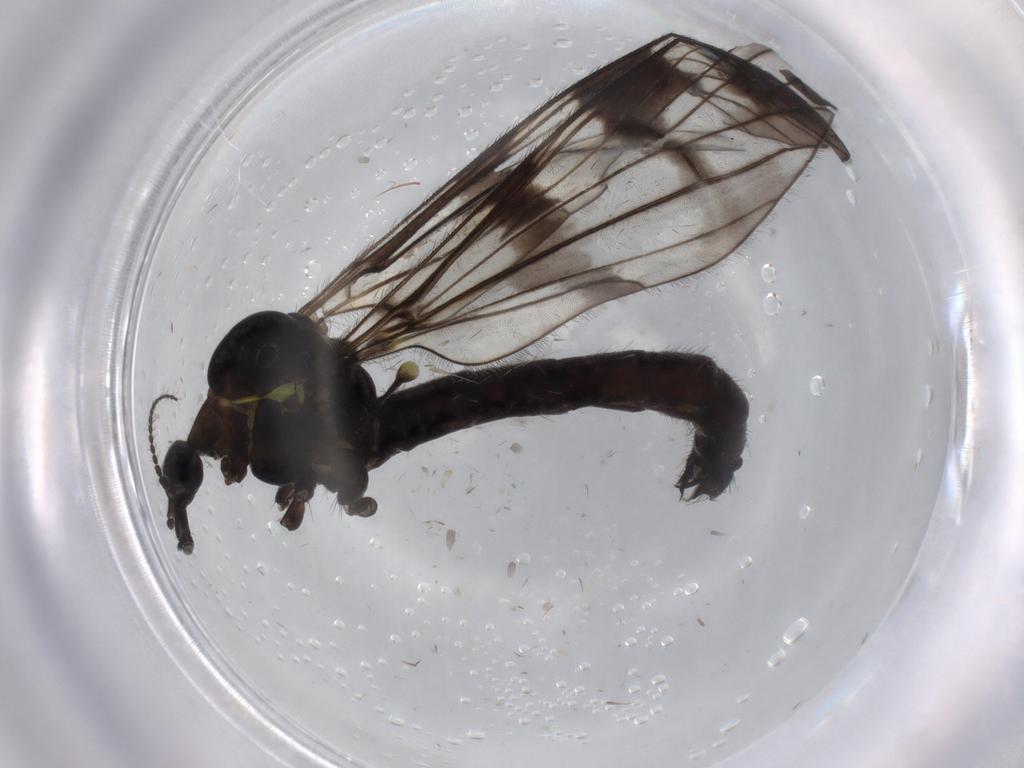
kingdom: Animalia
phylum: Arthropoda
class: Insecta
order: Diptera
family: Limoniidae
